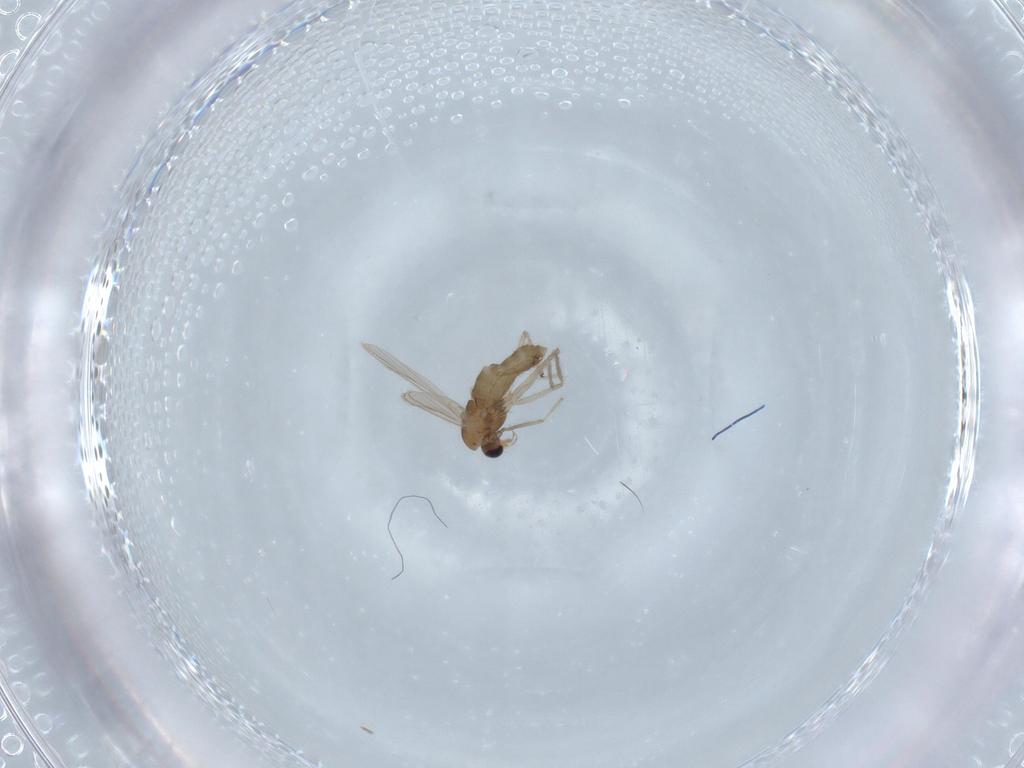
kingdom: Animalia
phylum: Arthropoda
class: Insecta
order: Diptera
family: Chironomidae
